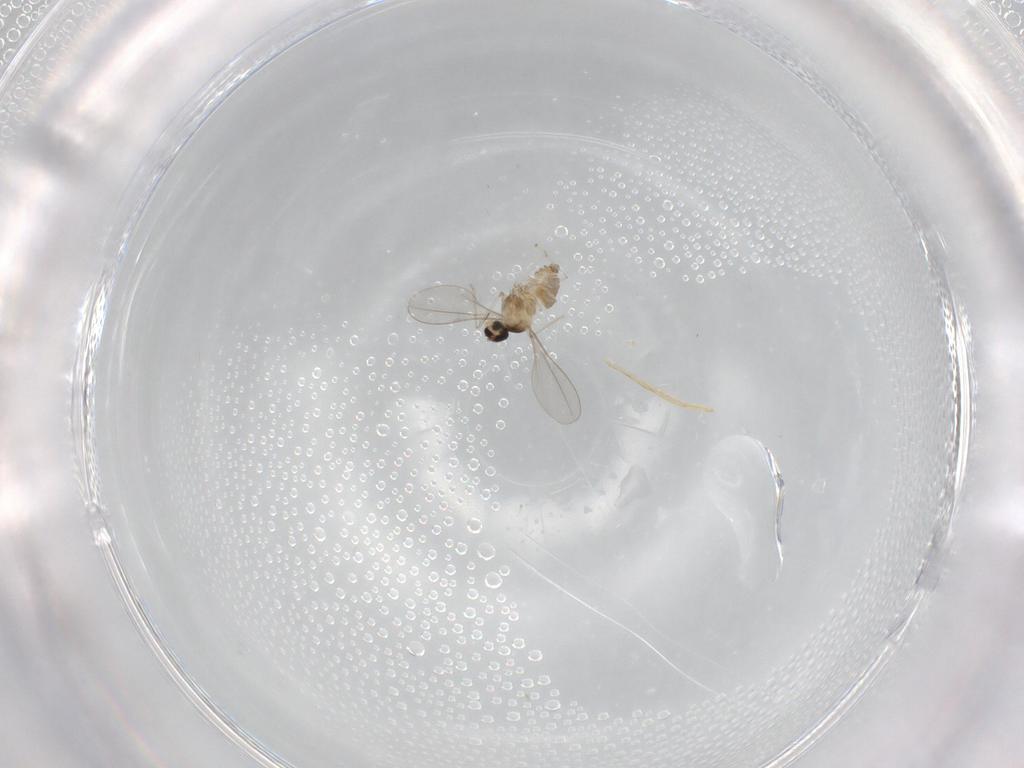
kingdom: Animalia
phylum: Arthropoda
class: Insecta
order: Diptera
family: Cecidomyiidae
